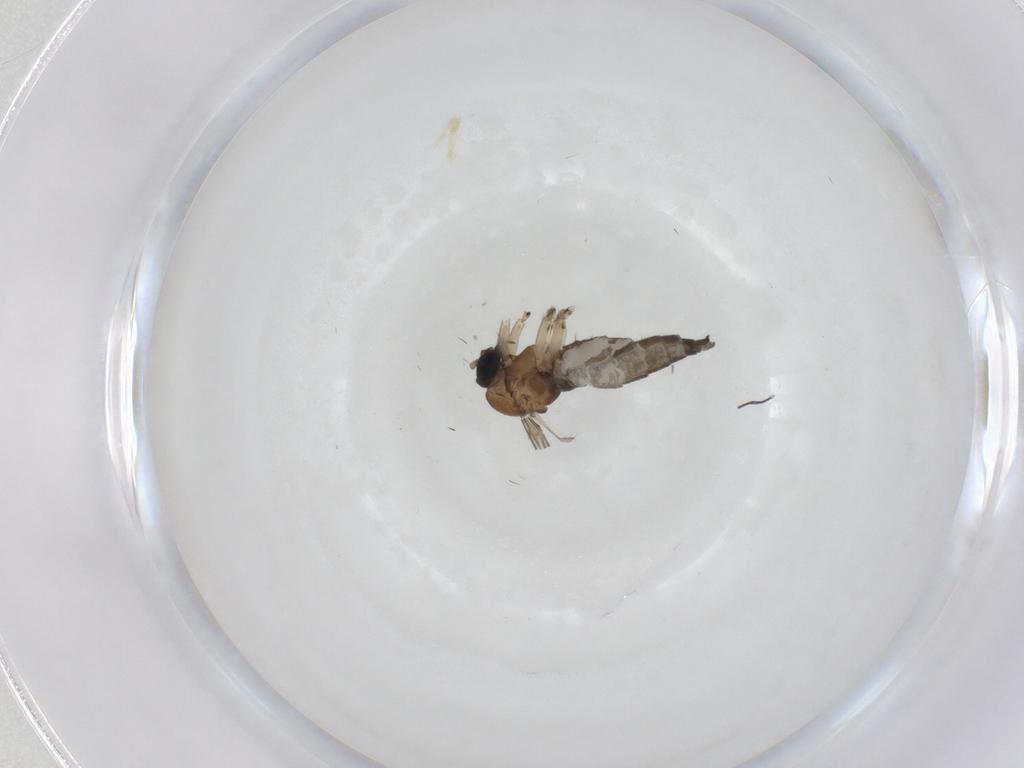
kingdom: Animalia
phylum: Arthropoda
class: Insecta
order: Diptera
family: Sciaridae
